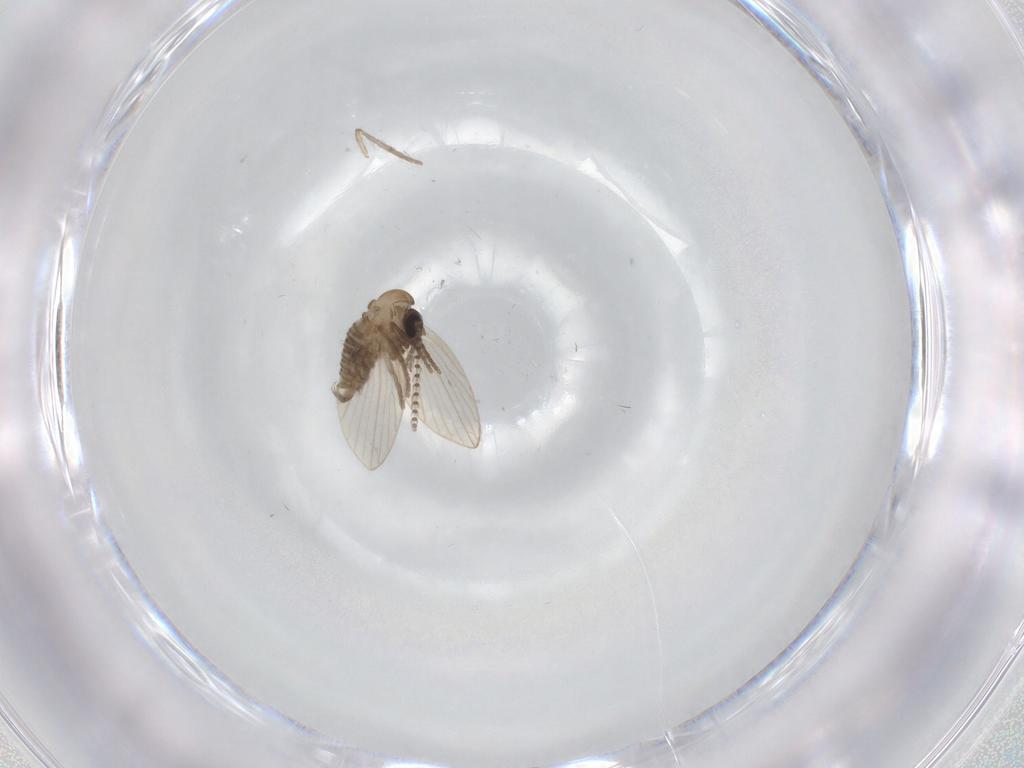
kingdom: Animalia
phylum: Arthropoda
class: Insecta
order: Diptera
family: Psychodidae
